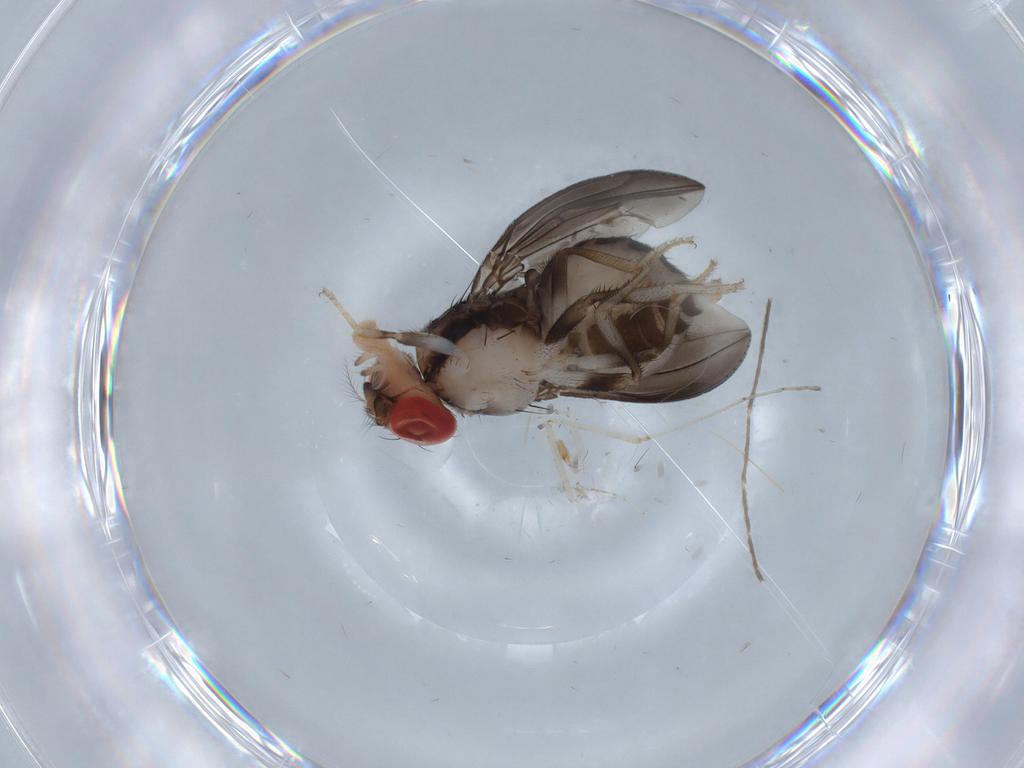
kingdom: Animalia
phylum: Arthropoda
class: Insecta
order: Diptera
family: Drosophilidae
